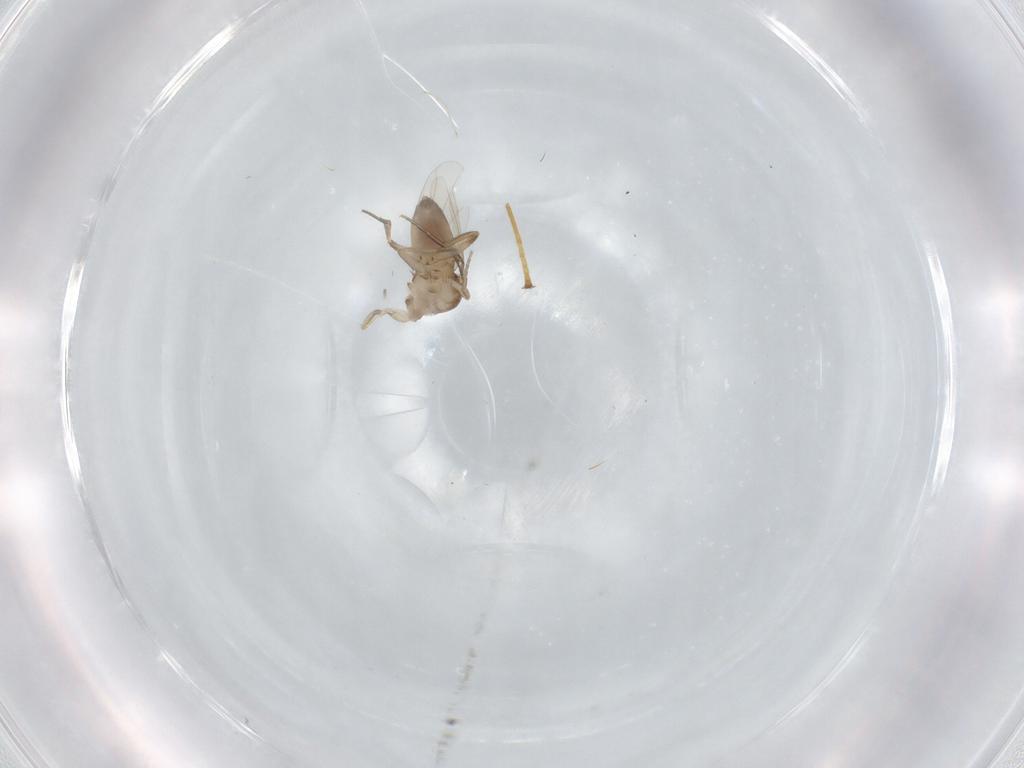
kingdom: Animalia
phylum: Arthropoda
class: Insecta
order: Diptera
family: Phoridae
